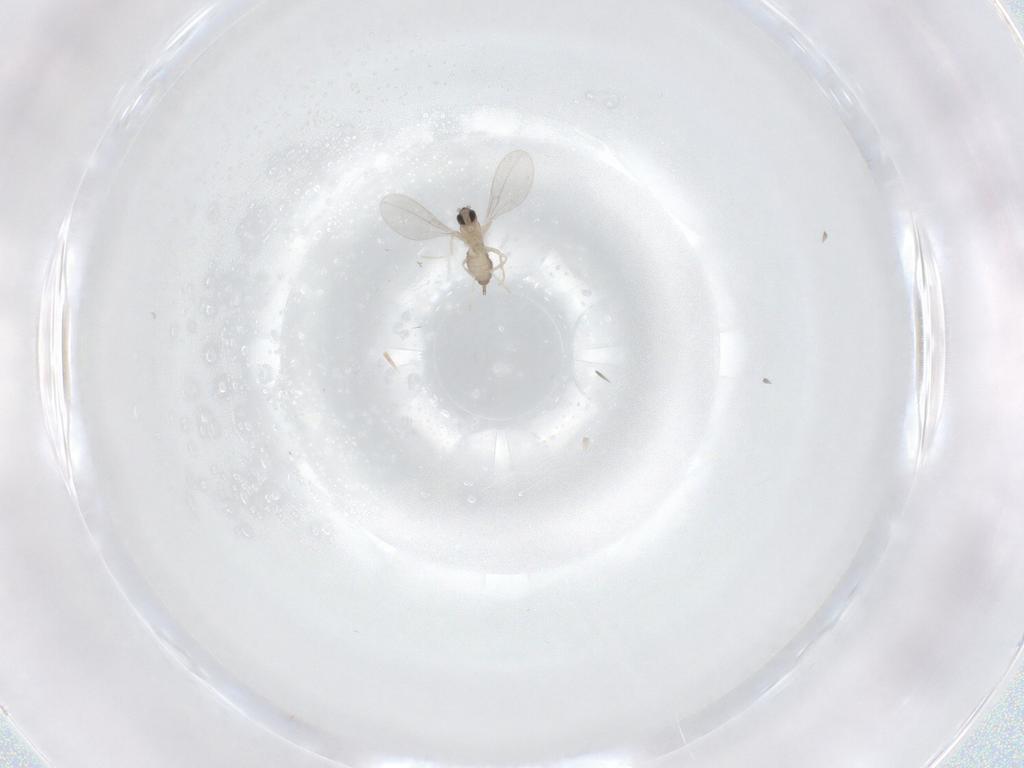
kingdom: Animalia
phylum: Arthropoda
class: Insecta
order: Diptera
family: Cecidomyiidae
